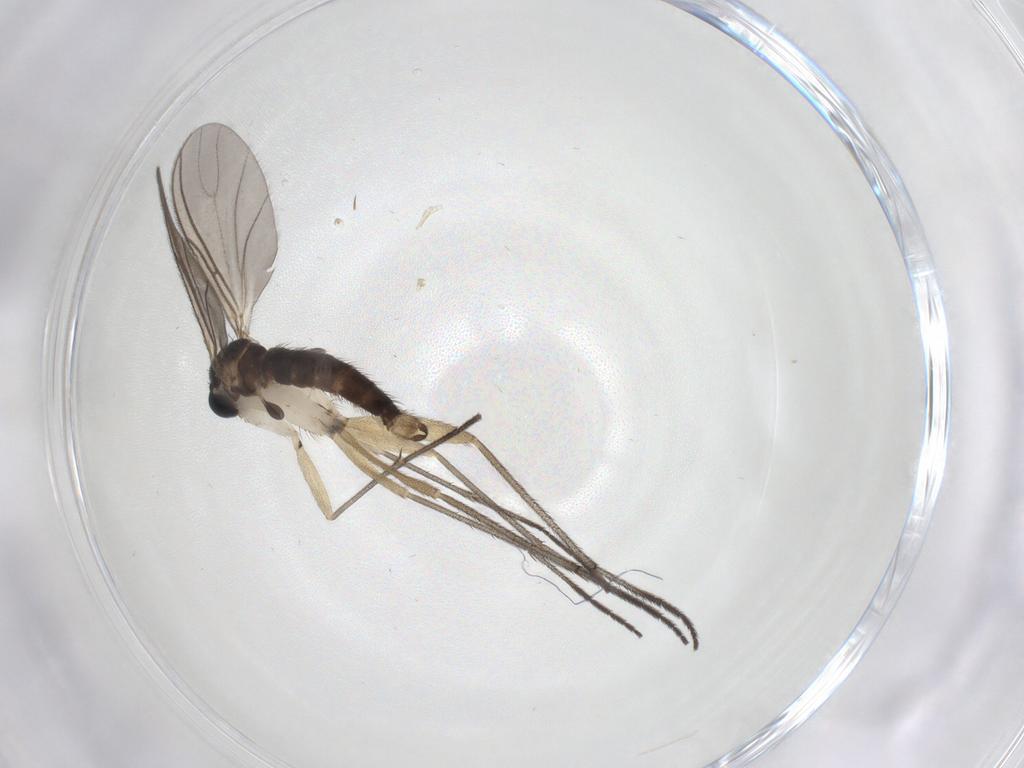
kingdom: Animalia
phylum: Arthropoda
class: Insecta
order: Diptera
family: Sciaridae
